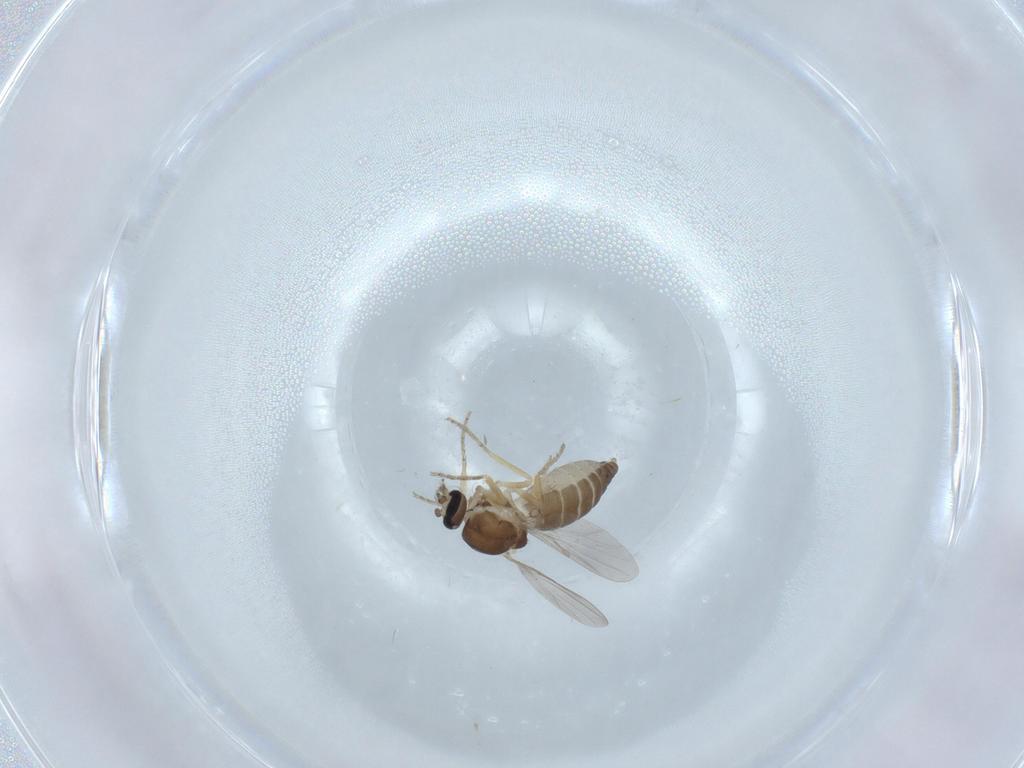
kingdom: Animalia
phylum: Arthropoda
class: Insecta
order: Diptera
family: Ceratopogonidae
